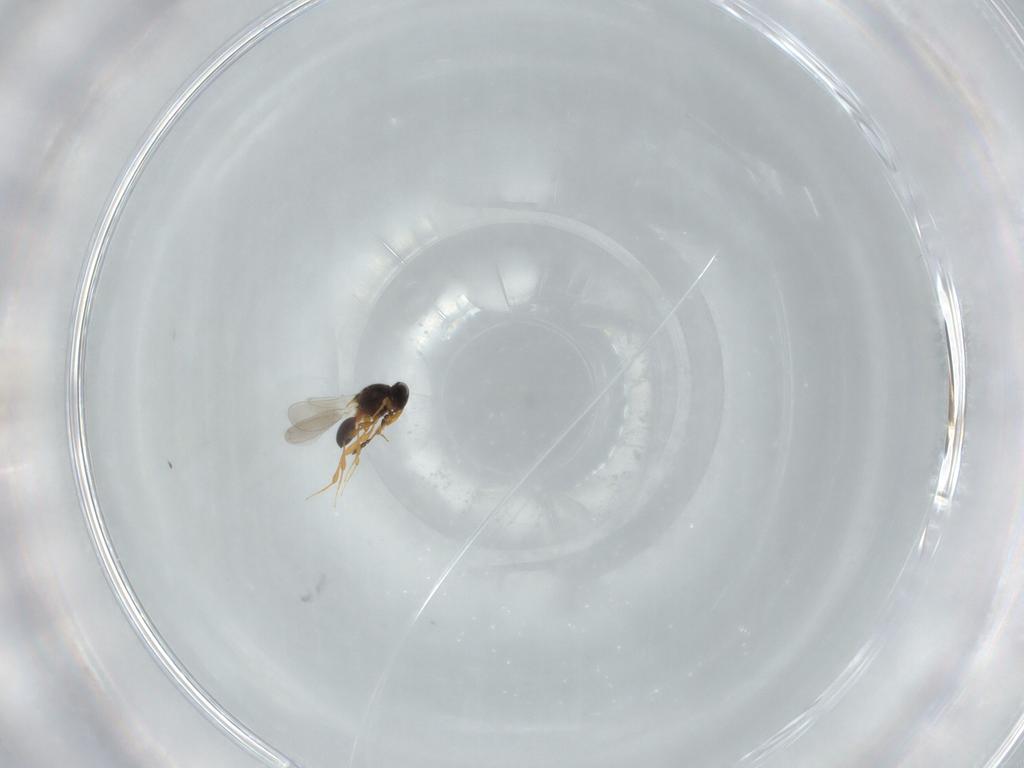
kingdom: Animalia
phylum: Arthropoda
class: Insecta
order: Hymenoptera
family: Platygastridae
